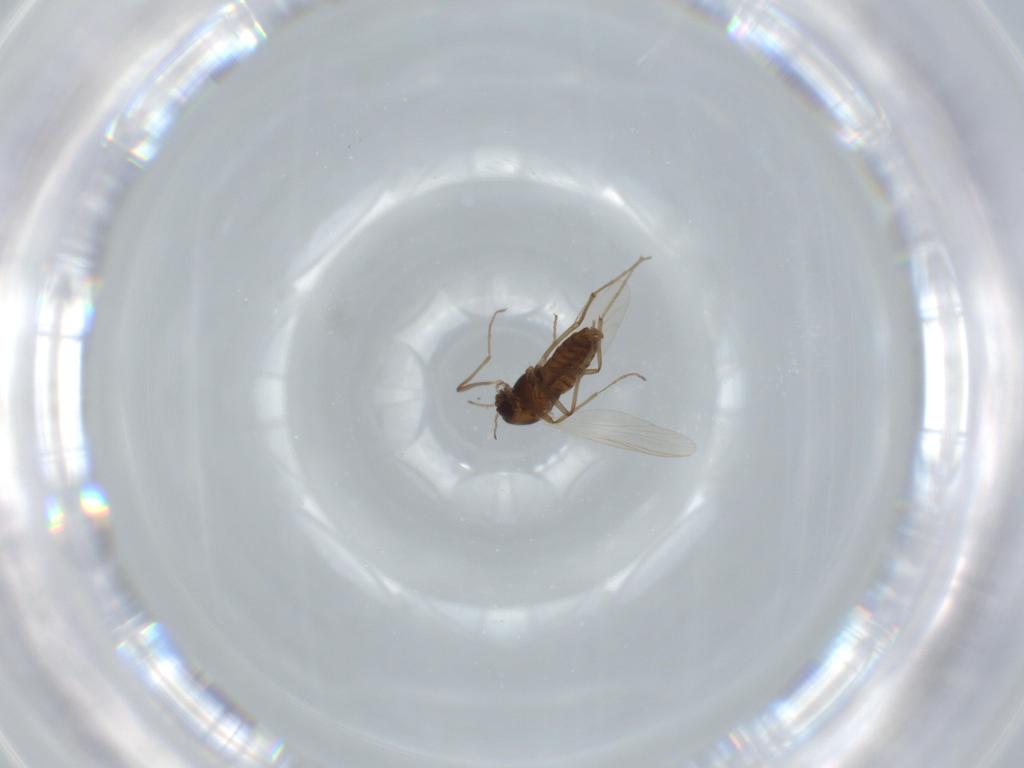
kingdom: Animalia
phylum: Arthropoda
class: Insecta
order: Diptera
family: Chironomidae
